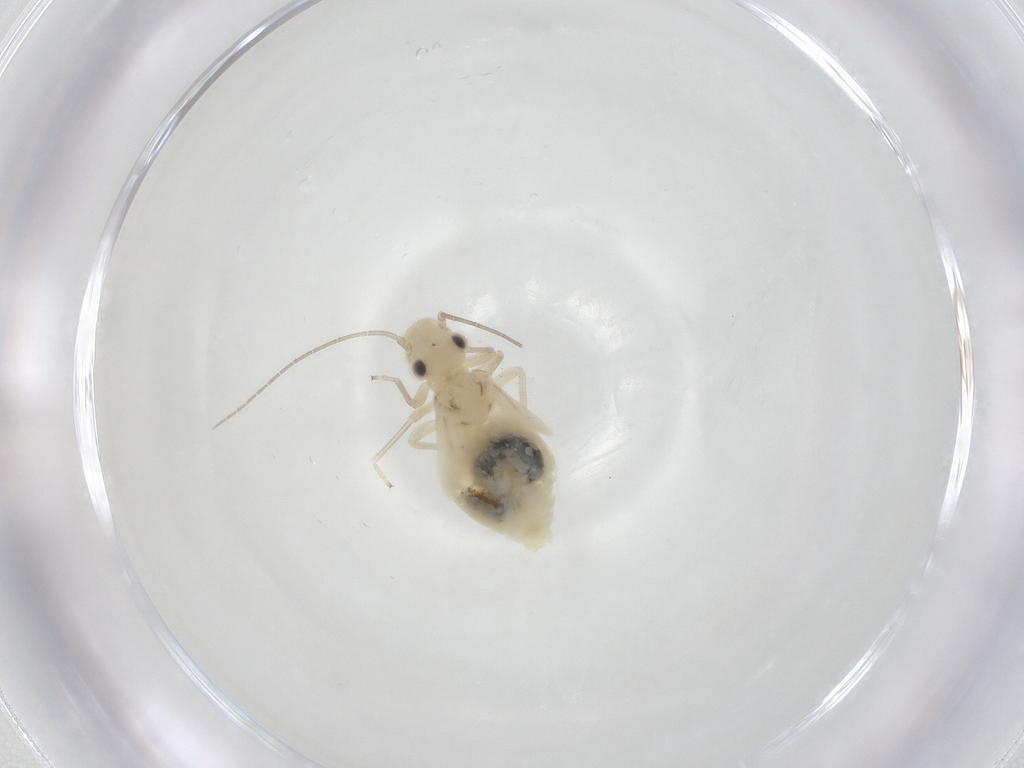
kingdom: Animalia
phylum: Arthropoda
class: Insecta
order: Psocodea
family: Caeciliusidae
